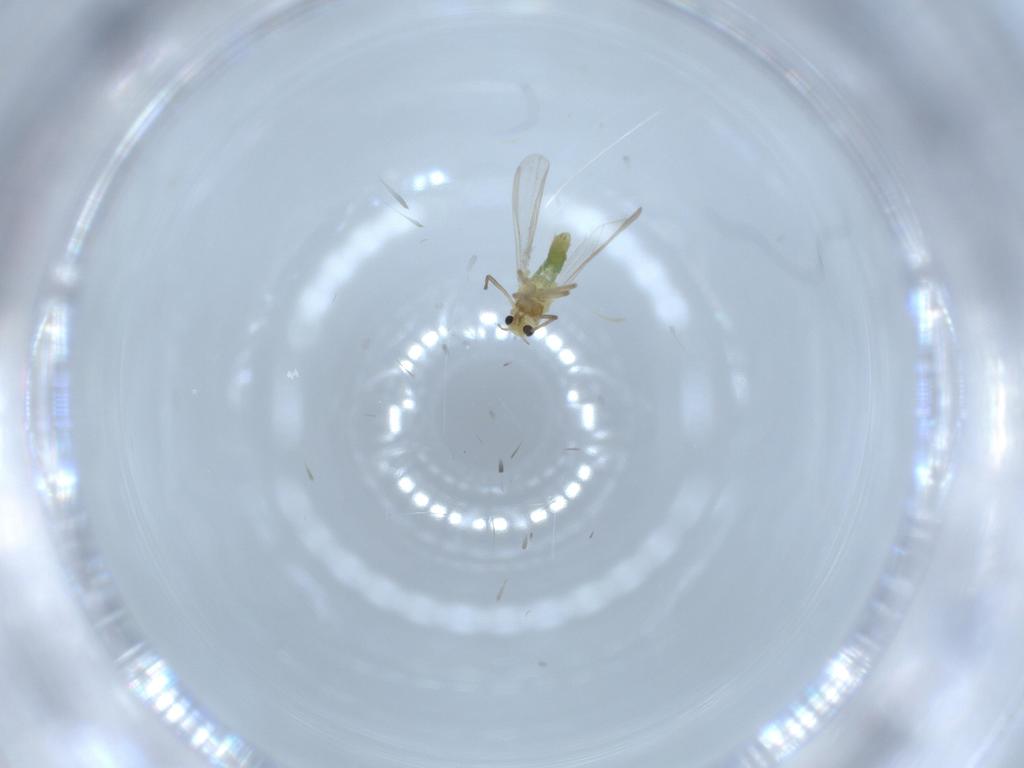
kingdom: Animalia
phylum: Arthropoda
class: Insecta
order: Diptera
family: Chironomidae
